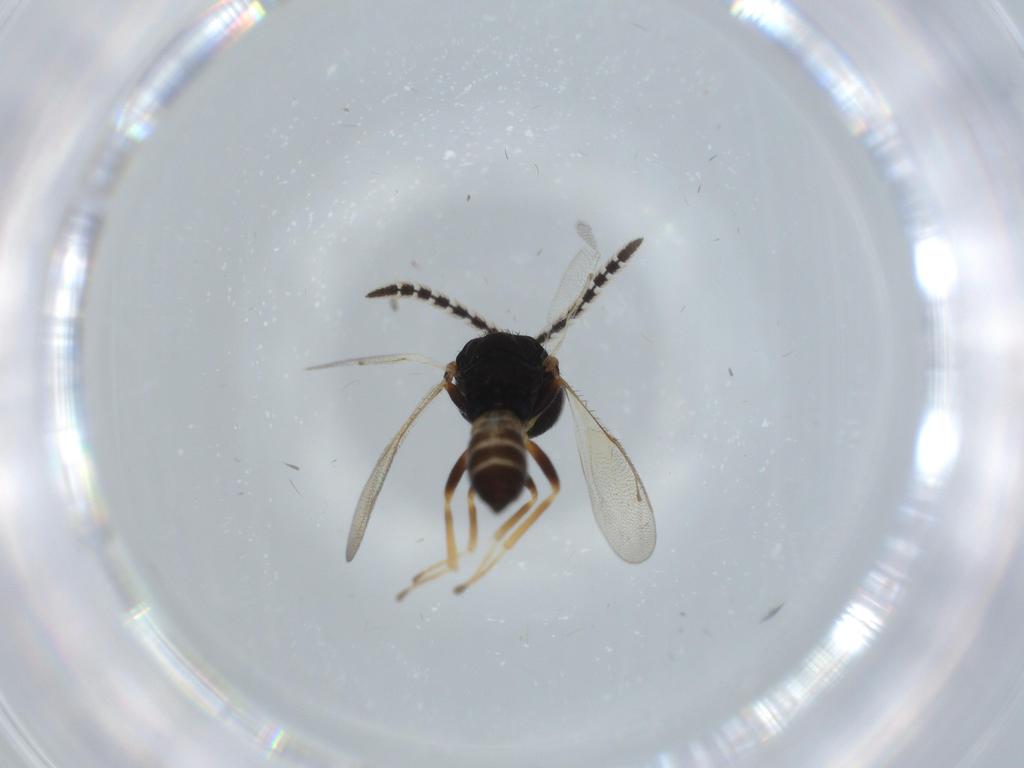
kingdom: Animalia
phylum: Arthropoda
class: Insecta
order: Hymenoptera
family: Pteromalidae
